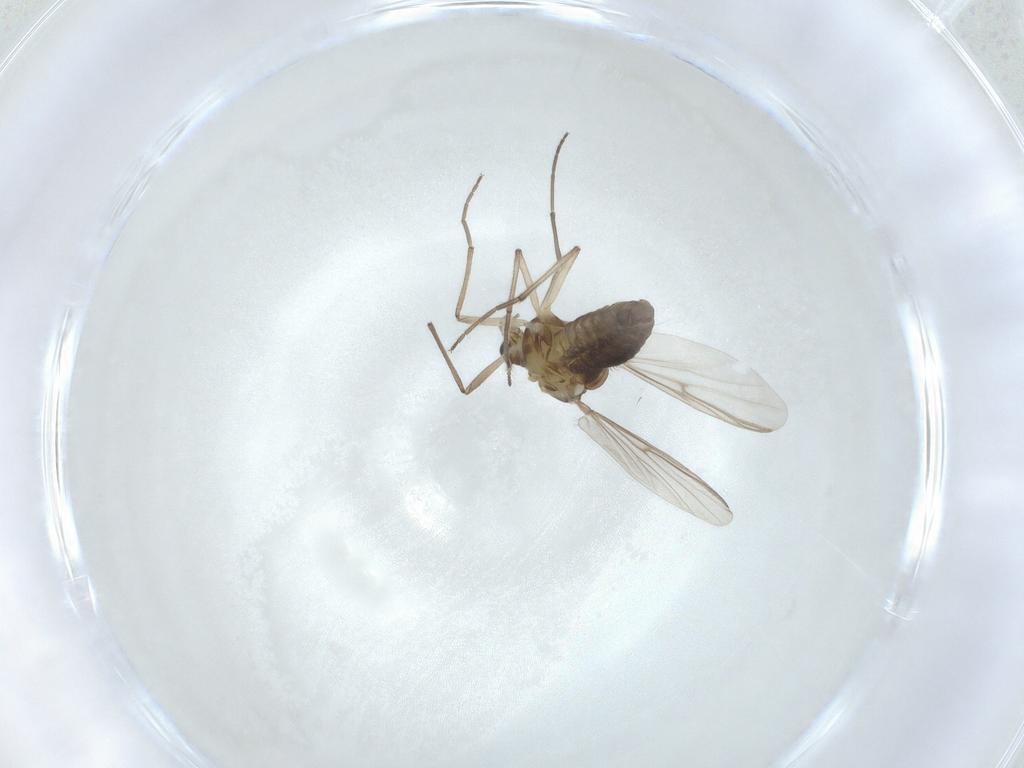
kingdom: Animalia
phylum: Arthropoda
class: Insecta
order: Diptera
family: Chironomidae
